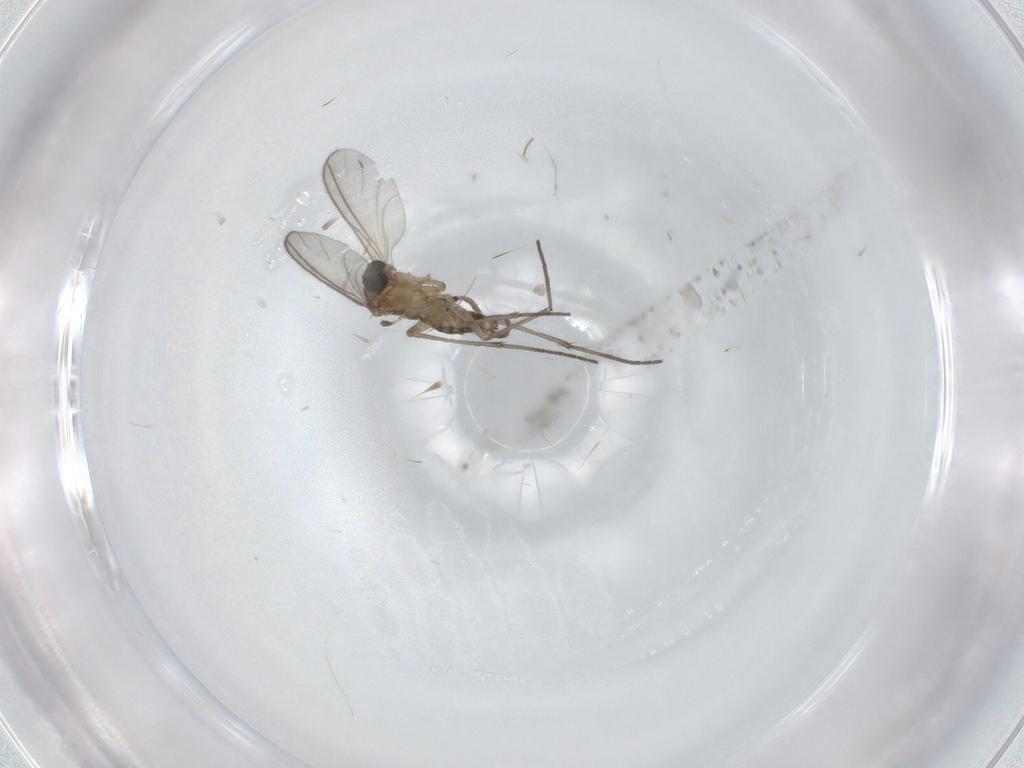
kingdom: Animalia
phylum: Arthropoda
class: Insecta
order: Diptera
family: Sciaridae
